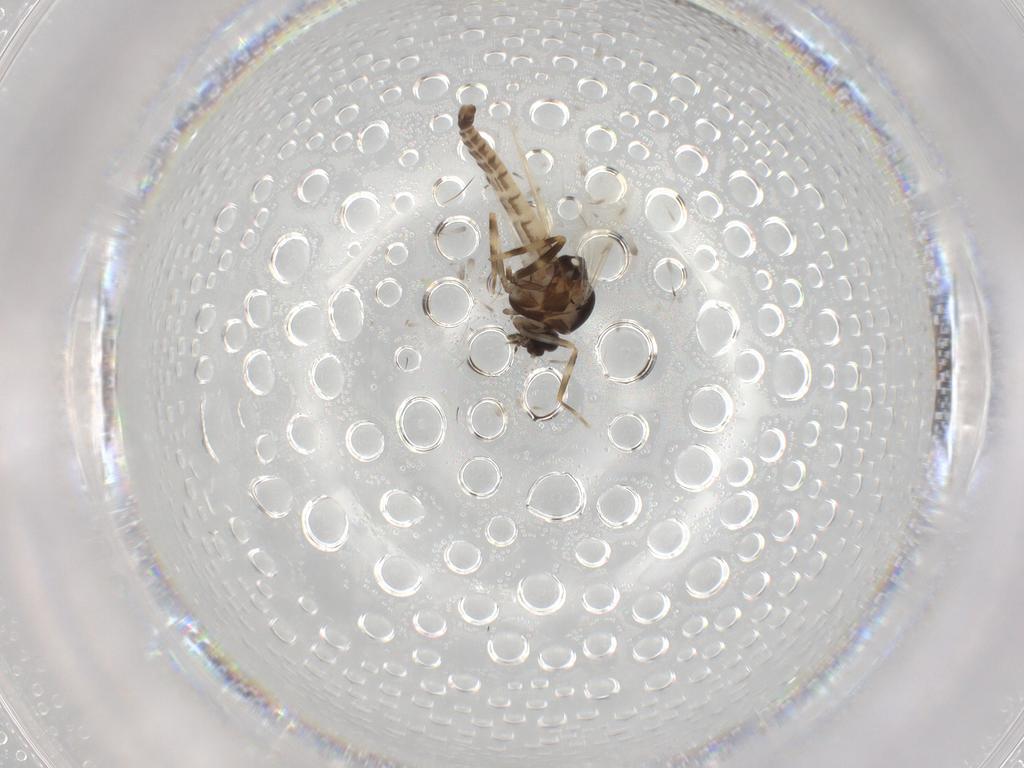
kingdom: Animalia
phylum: Arthropoda
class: Insecta
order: Diptera
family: Ceratopogonidae
